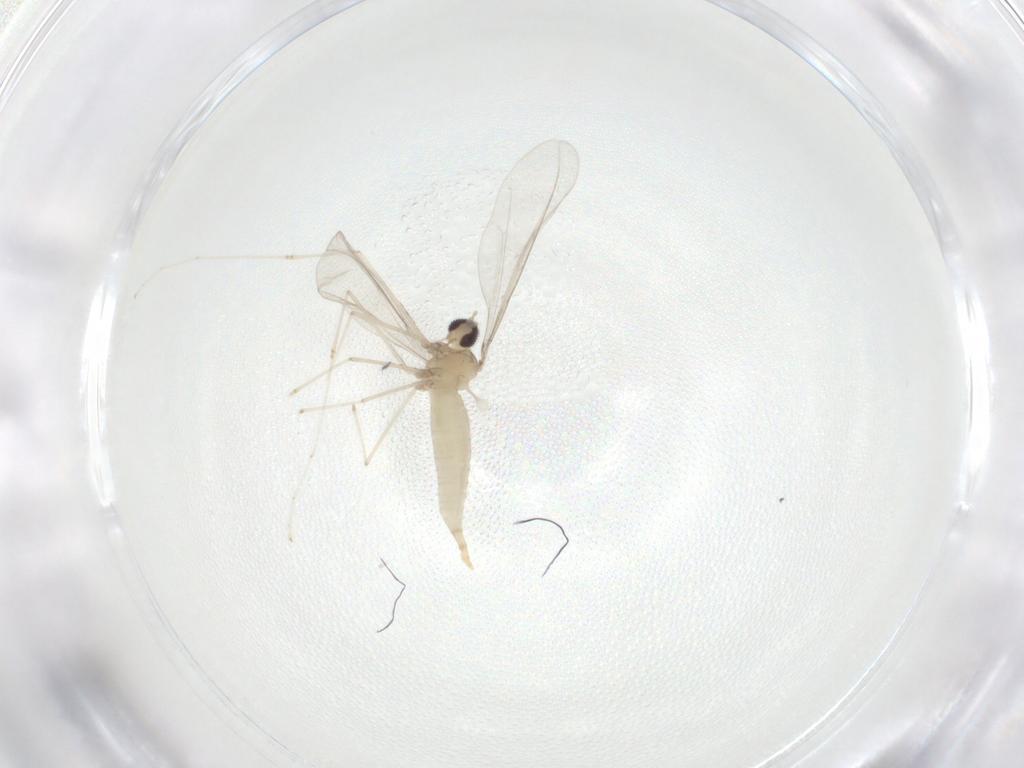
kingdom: Animalia
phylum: Arthropoda
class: Insecta
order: Diptera
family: Cecidomyiidae
